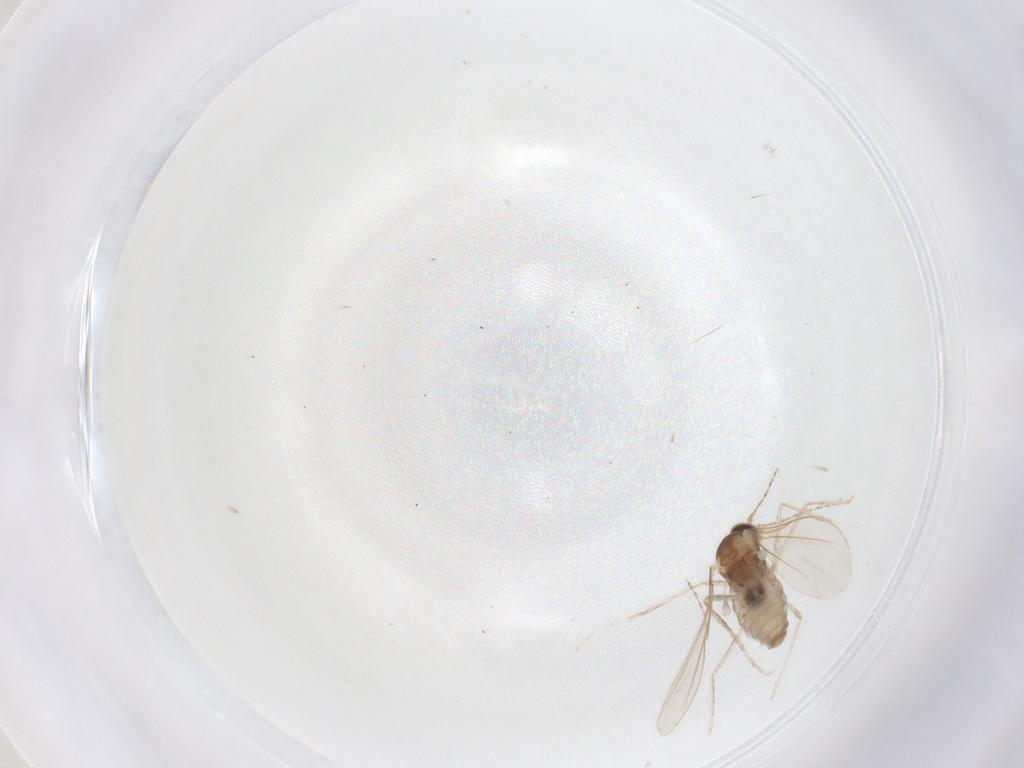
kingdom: Animalia
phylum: Arthropoda
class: Insecta
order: Diptera
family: Cecidomyiidae
